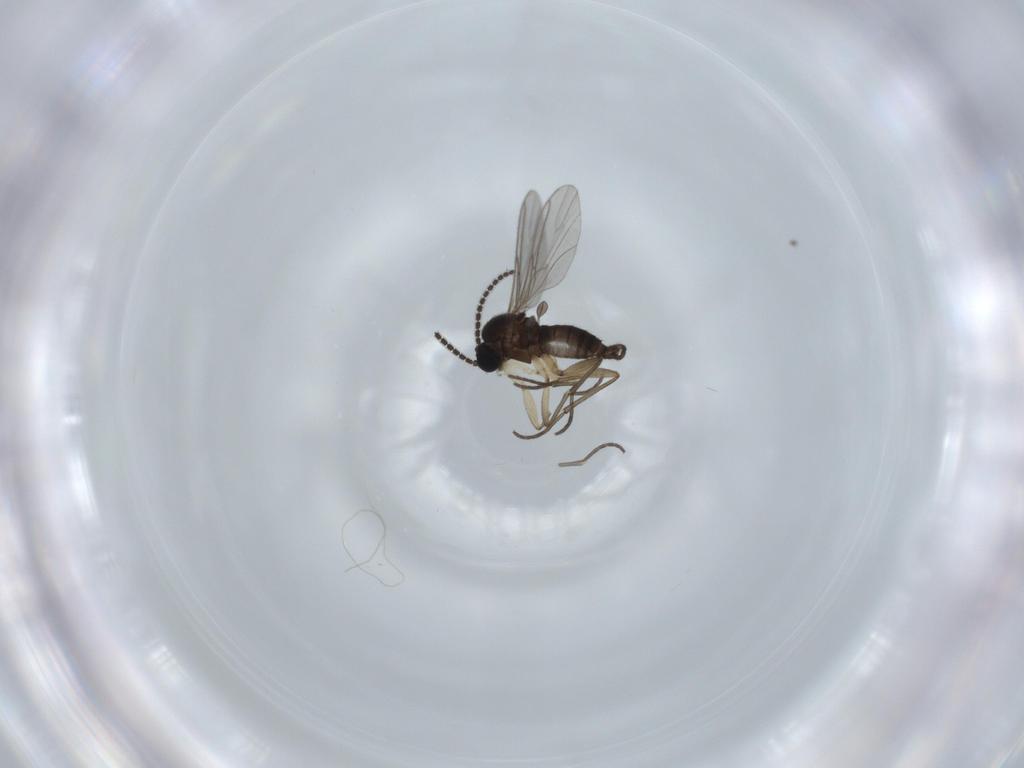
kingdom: Animalia
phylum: Arthropoda
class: Insecta
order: Diptera
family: Sciaridae
